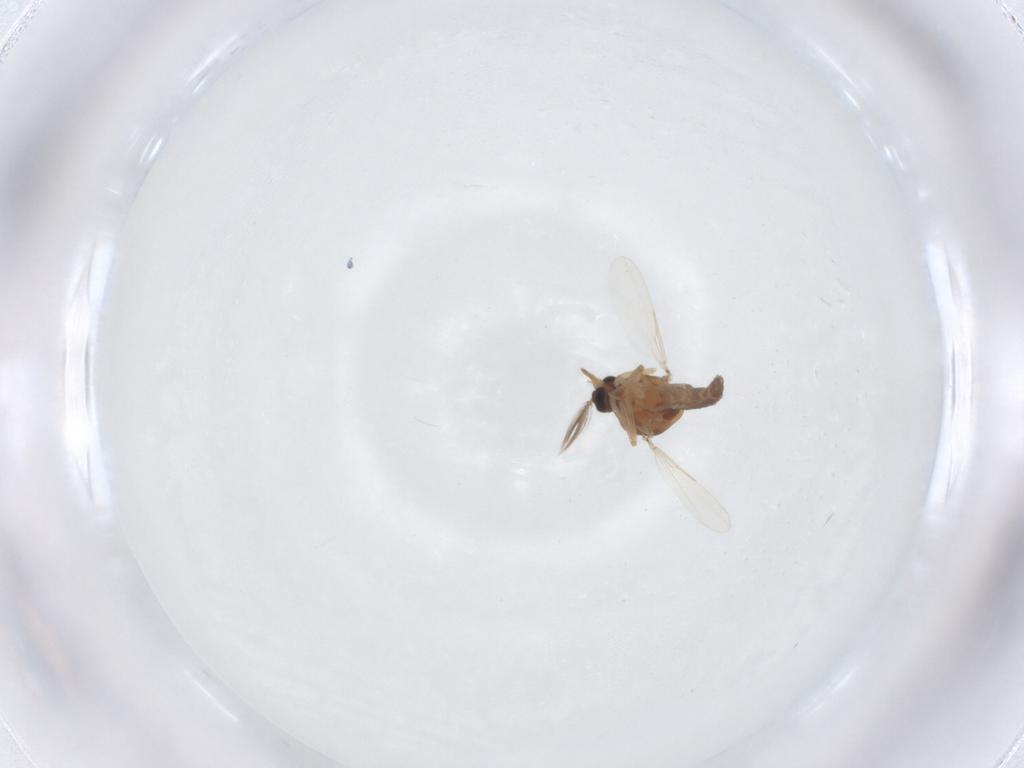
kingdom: Animalia
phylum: Arthropoda
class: Insecta
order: Diptera
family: Ceratopogonidae
